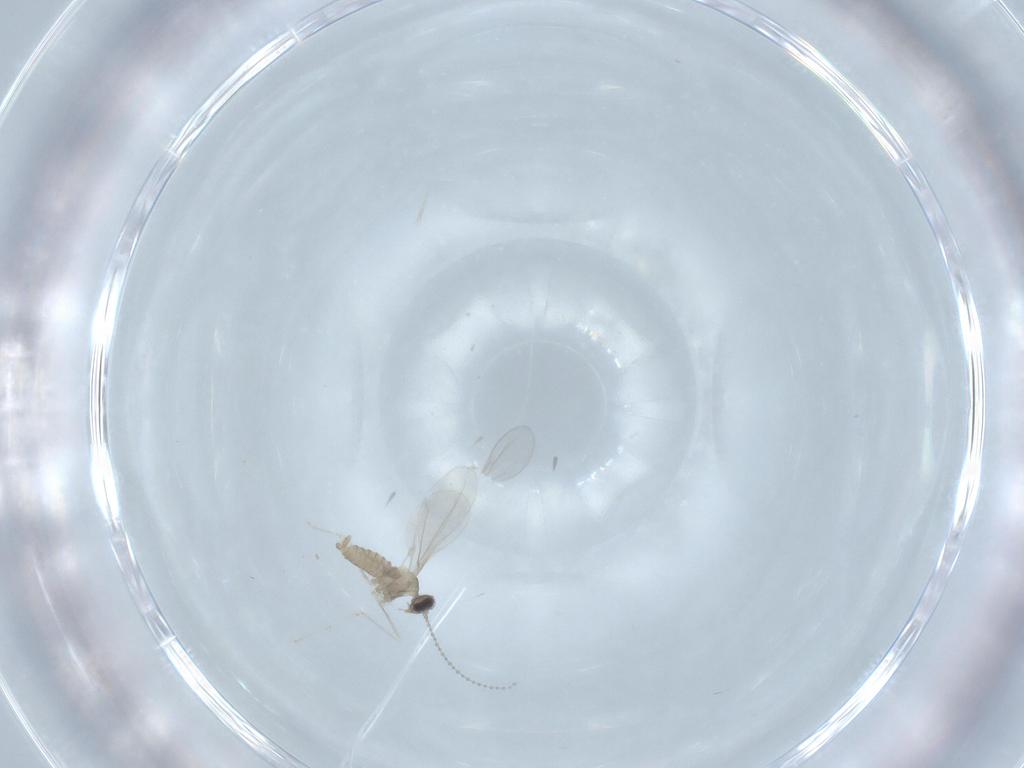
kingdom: Animalia
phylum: Arthropoda
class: Insecta
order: Diptera
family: Cecidomyiidae
